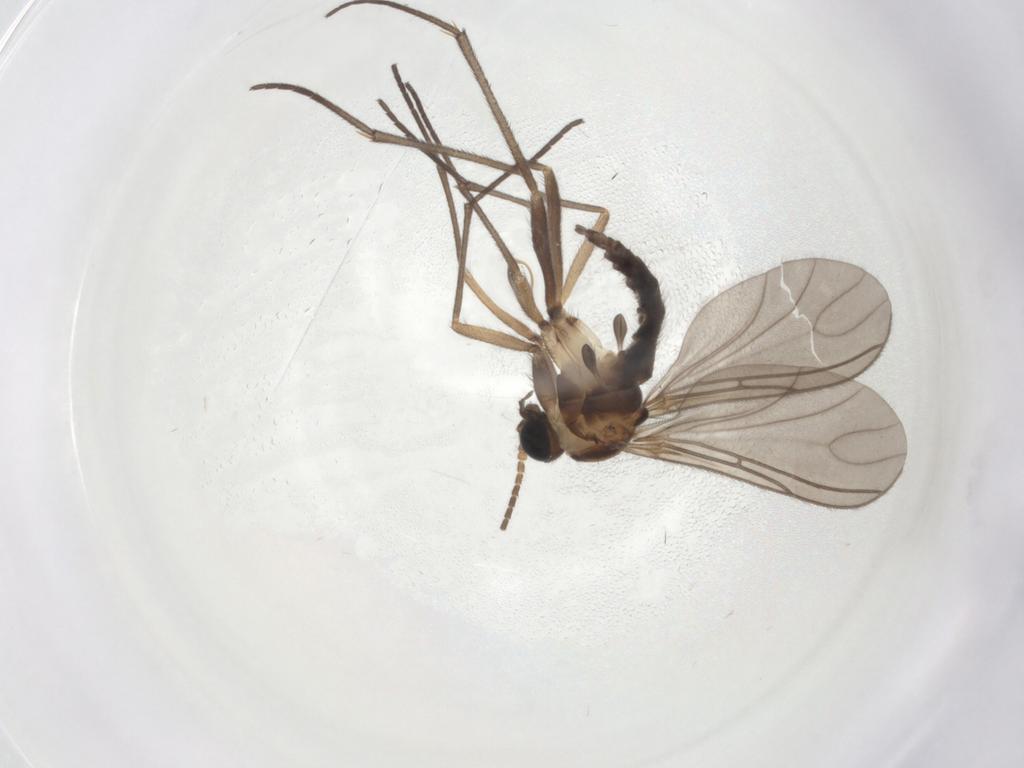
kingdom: Animalia
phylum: Arthropoda
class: Insecta
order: Diptera
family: Sciaridae
